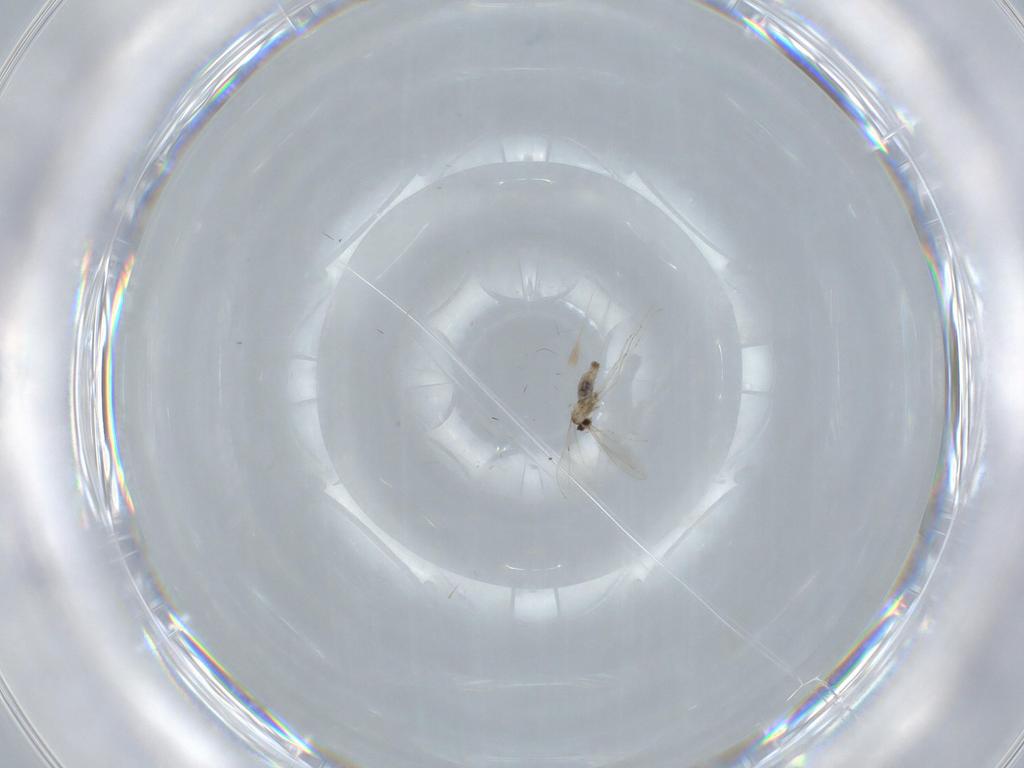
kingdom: Animalia
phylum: Arthropoda
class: Insecta
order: Diptera
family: Cecidomyiidae
